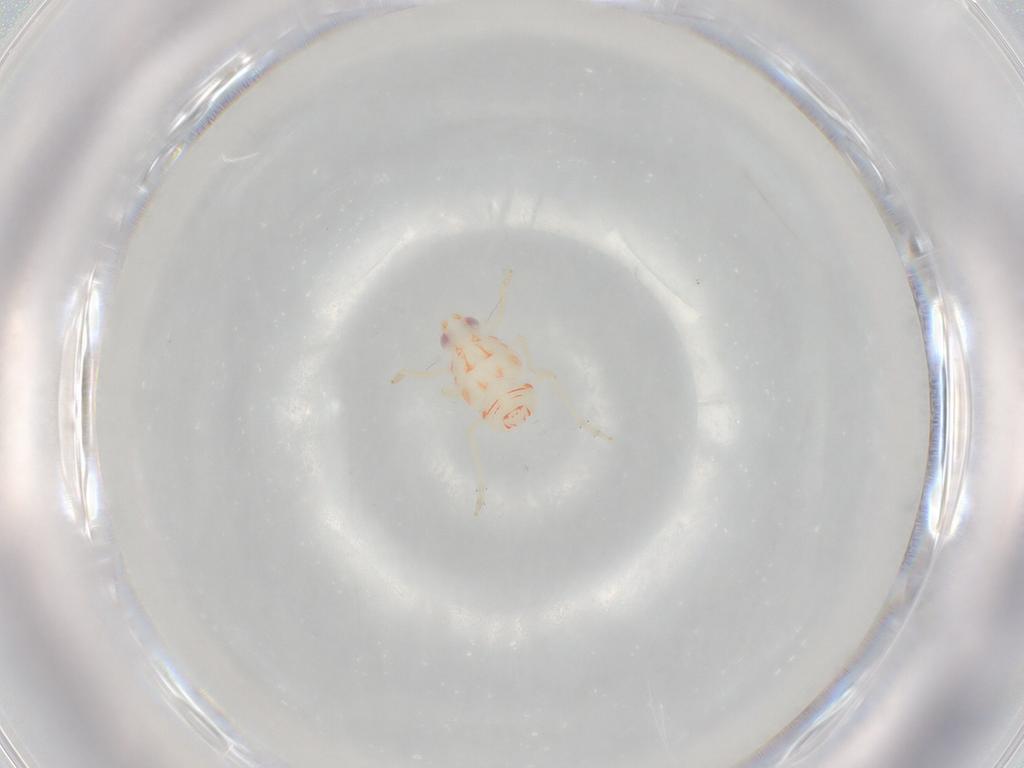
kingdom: Animalia
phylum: Arthropoda
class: Insecta
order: Hemiptera
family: Tropiduchidae
